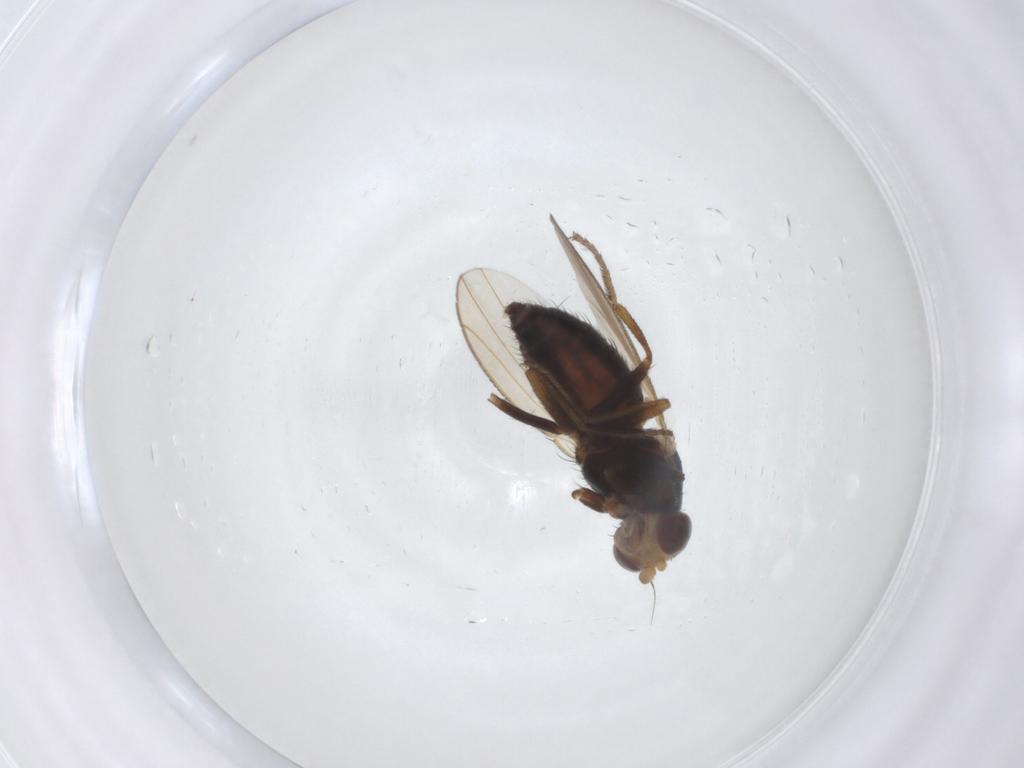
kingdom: Animalia
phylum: Arthropoda
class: Insecta
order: Diptera
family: Heleomyzidae
